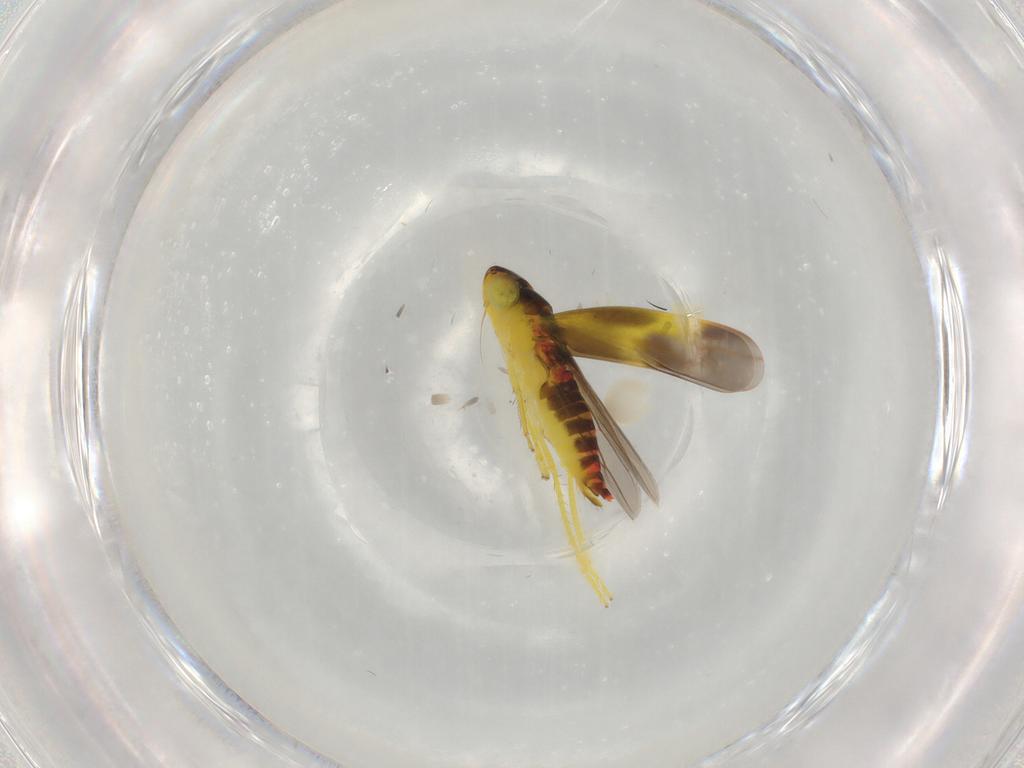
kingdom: Animalia
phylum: Arthropoda
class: Insecta
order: Hemiptera
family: Cicadellidae
